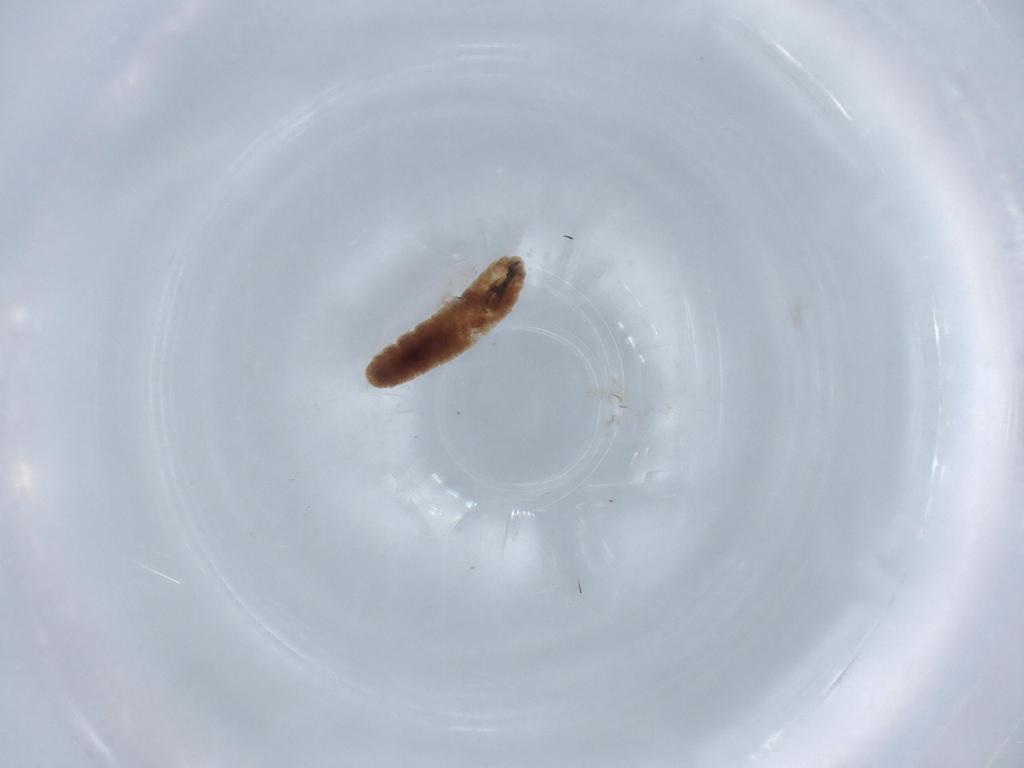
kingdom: Animalia
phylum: Arthropoda
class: Insecta
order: Diptera
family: Sarcophagidae
